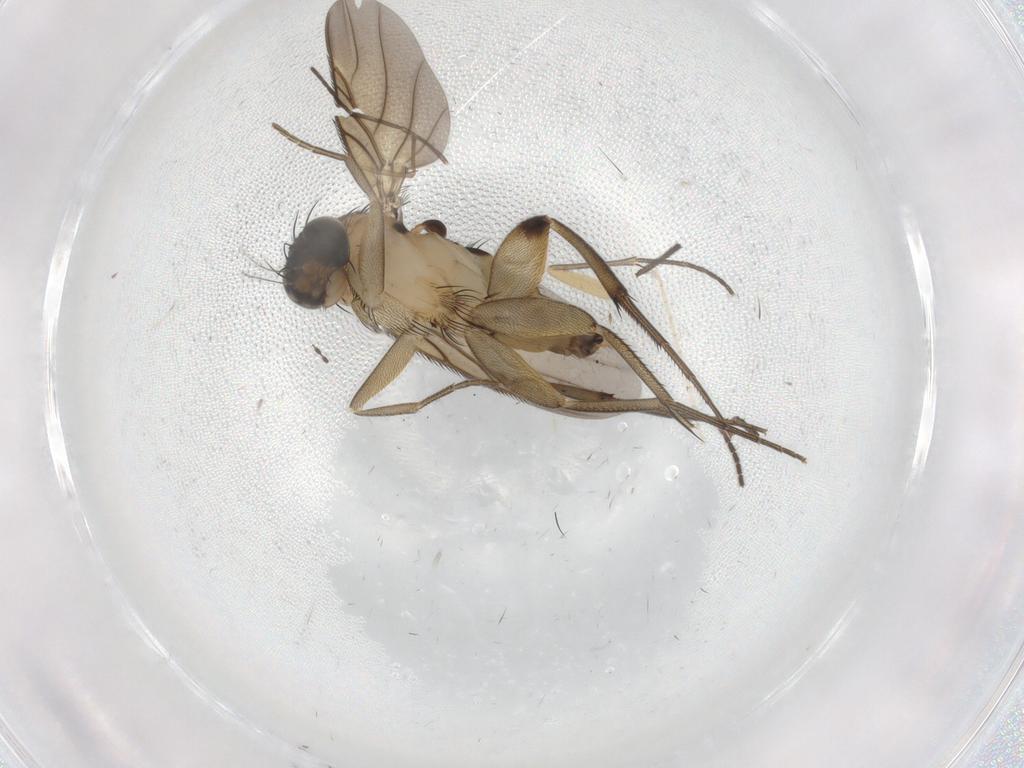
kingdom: Animalia
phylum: Arthropoda
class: Insecta
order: Diptera
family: Phoridae
